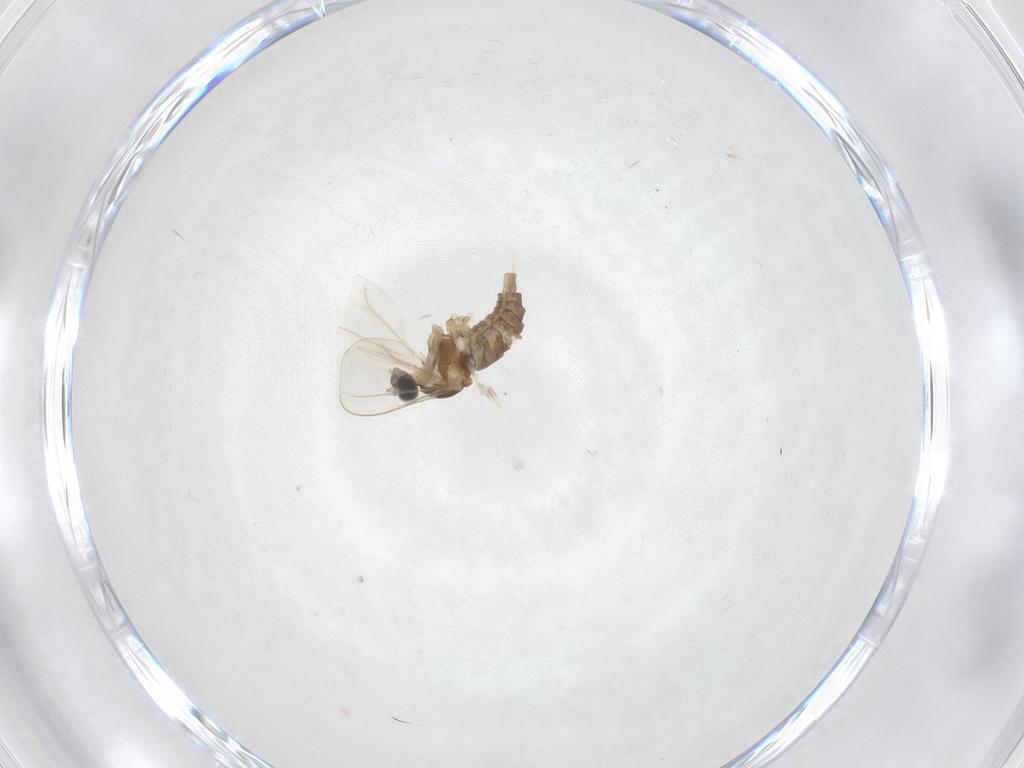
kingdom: Animalia
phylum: Arthropoda
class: Insecta
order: Diptera
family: Cecidomyiidae
